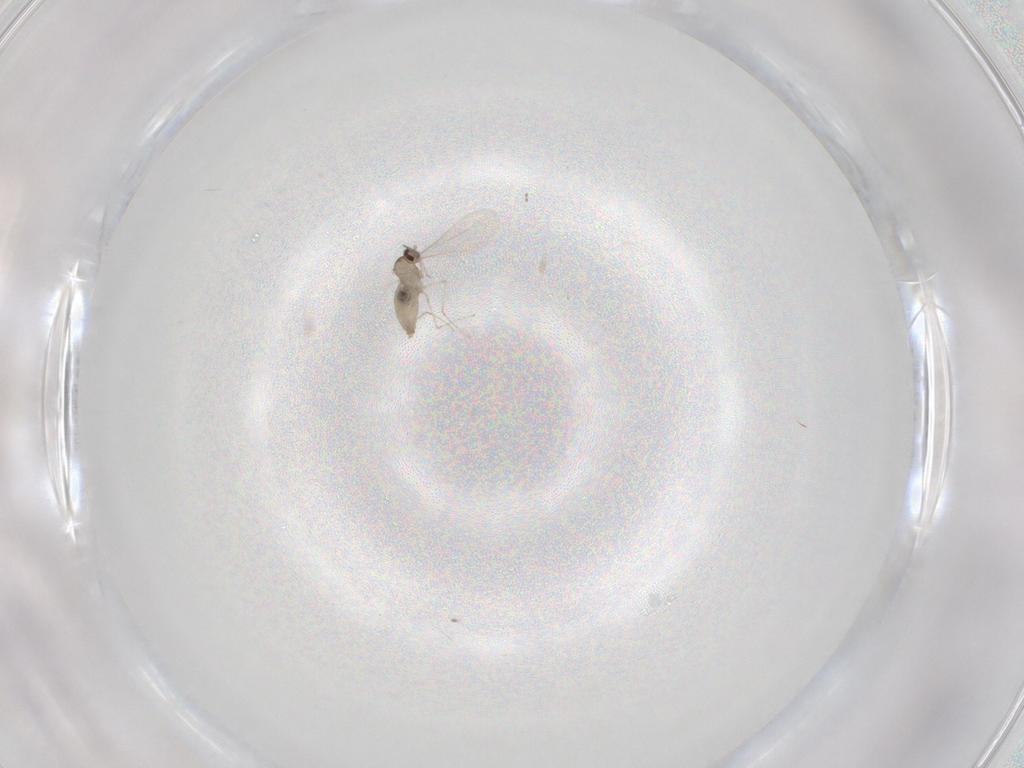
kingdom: Animalia
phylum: Arthropoda
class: Insecta
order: Diptera
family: Cecidomyiidae
